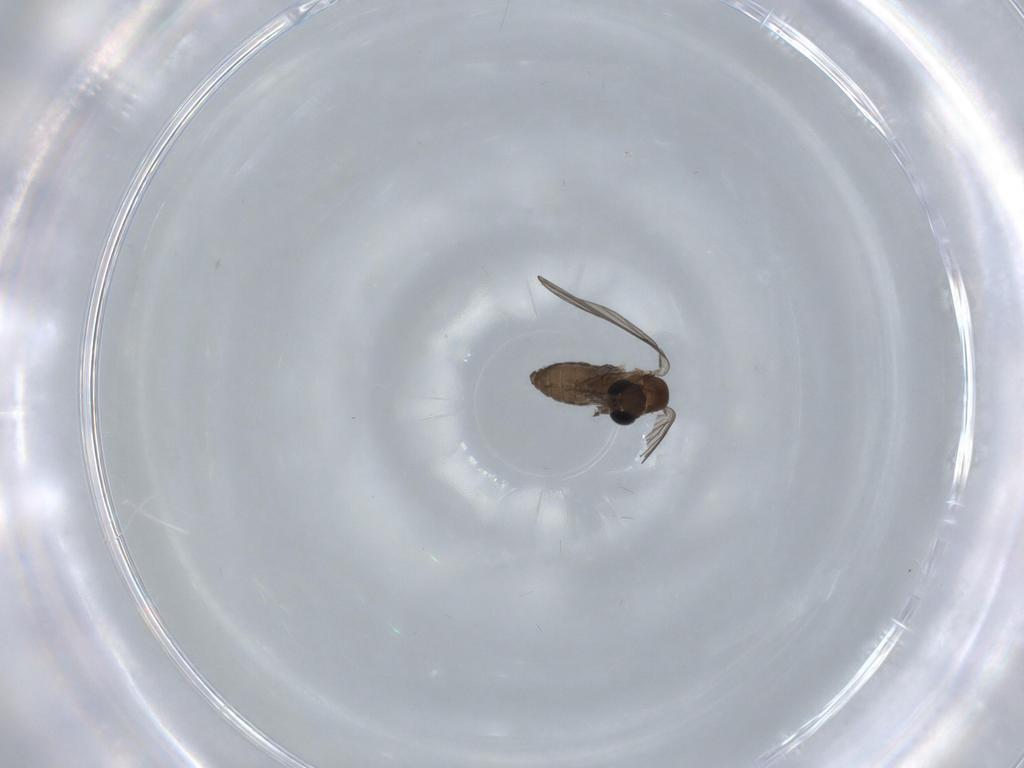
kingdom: Animalia
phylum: Arthropoda
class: Insecta
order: Diptera
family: Psychodidae
